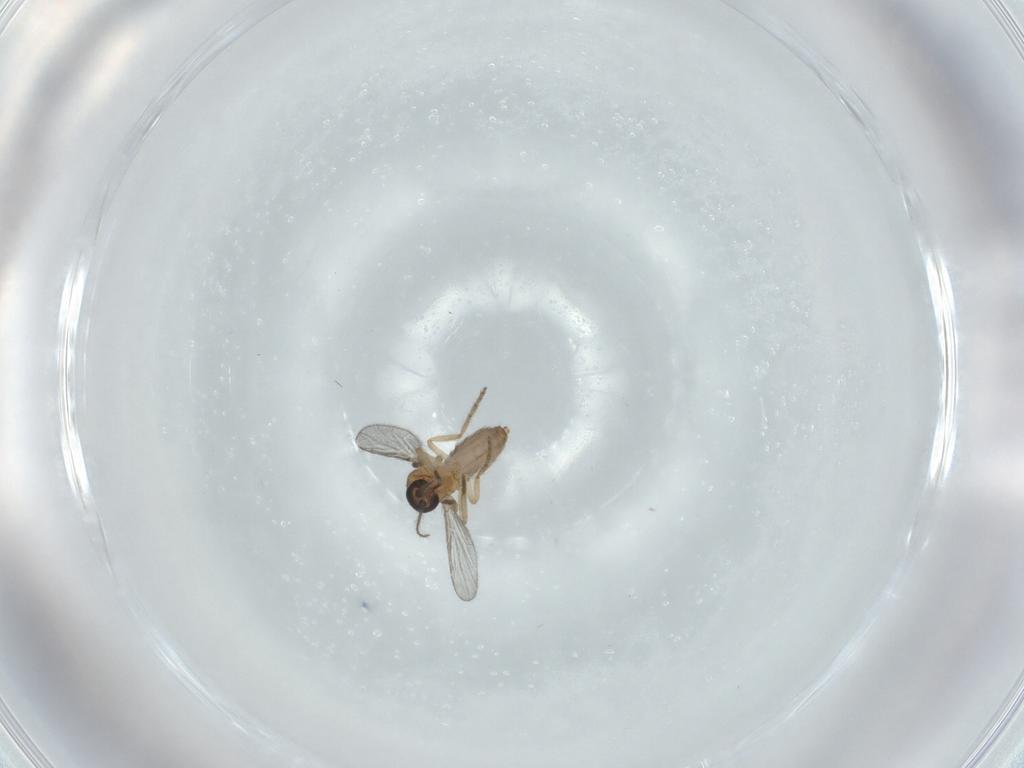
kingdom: Animalia
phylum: Arthropoda
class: Insecta
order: Diptera
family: Ceratopogonidae
